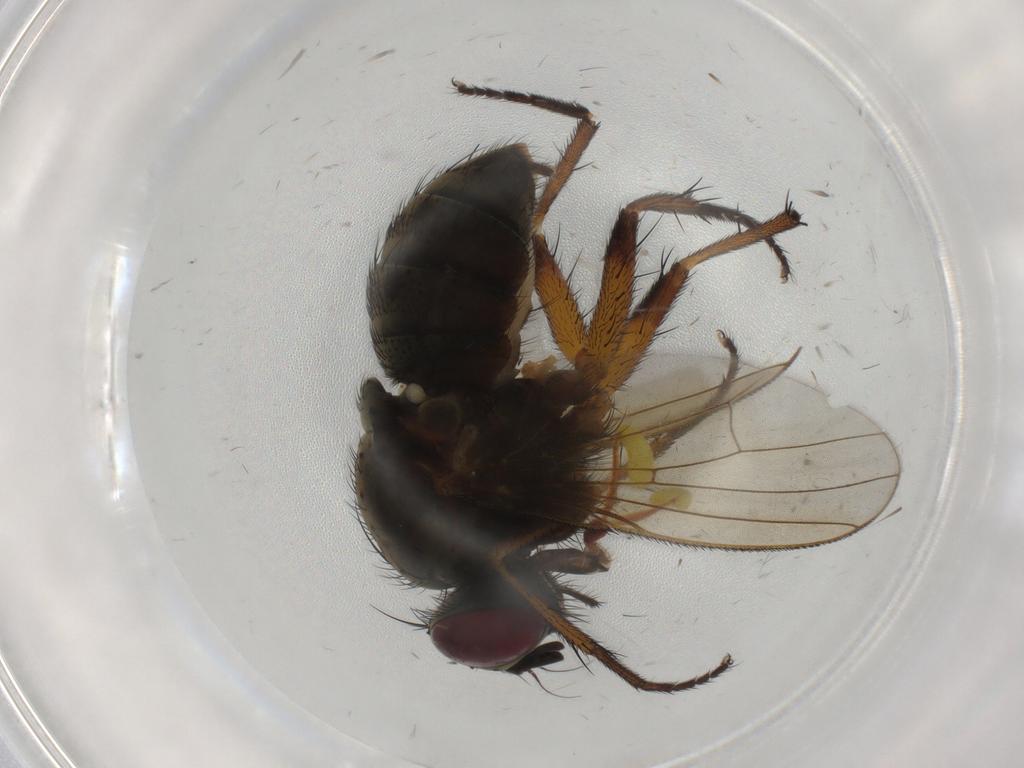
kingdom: Animalia
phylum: Arthropoda
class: Insecta
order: Diptera
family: Muscidae
